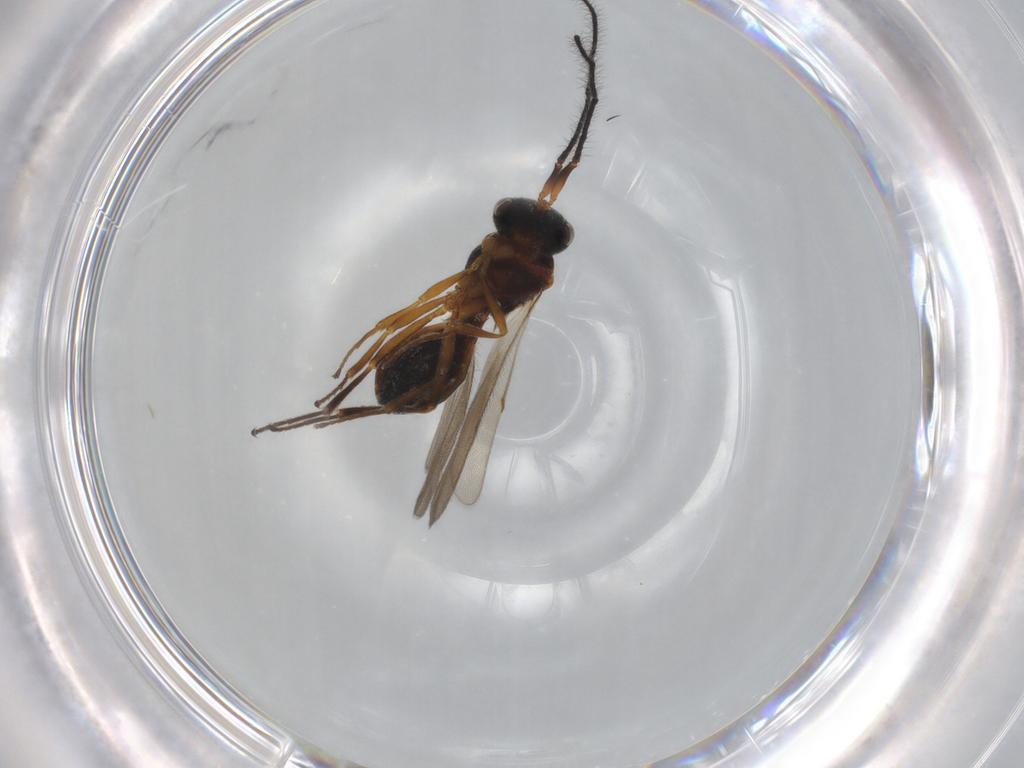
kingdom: Animalia
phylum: Arthropoda
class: Insecta
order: Hymenoptera
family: Scelionidae
